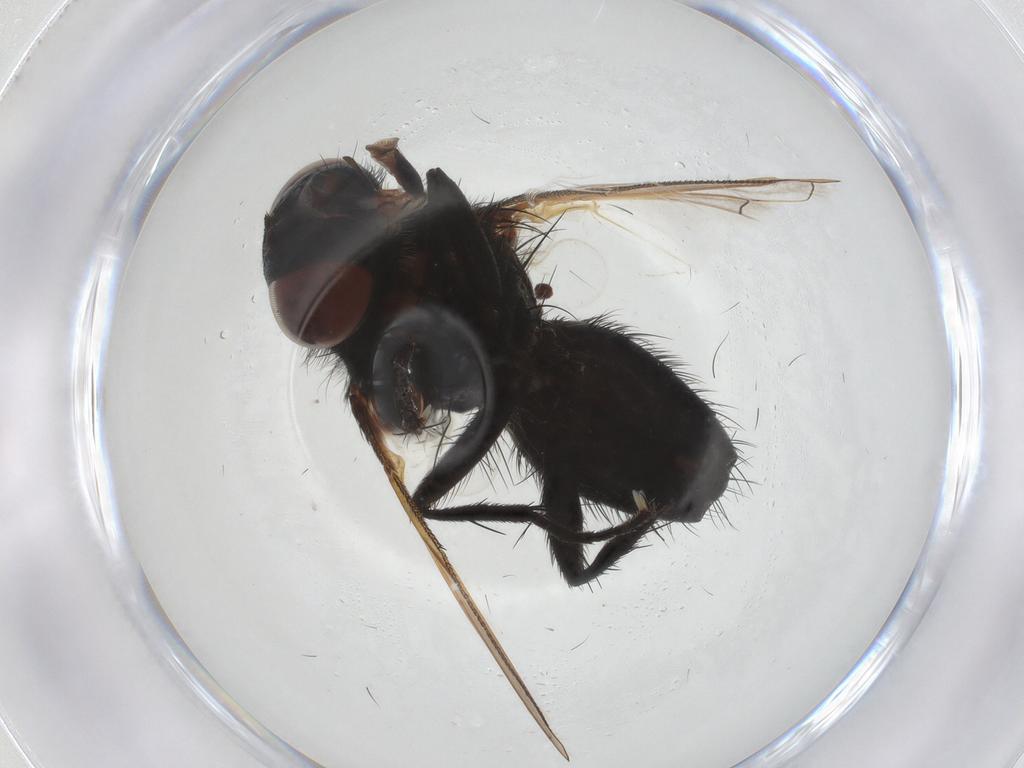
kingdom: Animalia
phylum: Arthropoda
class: Insecta
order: Diptera
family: Tachinidae
